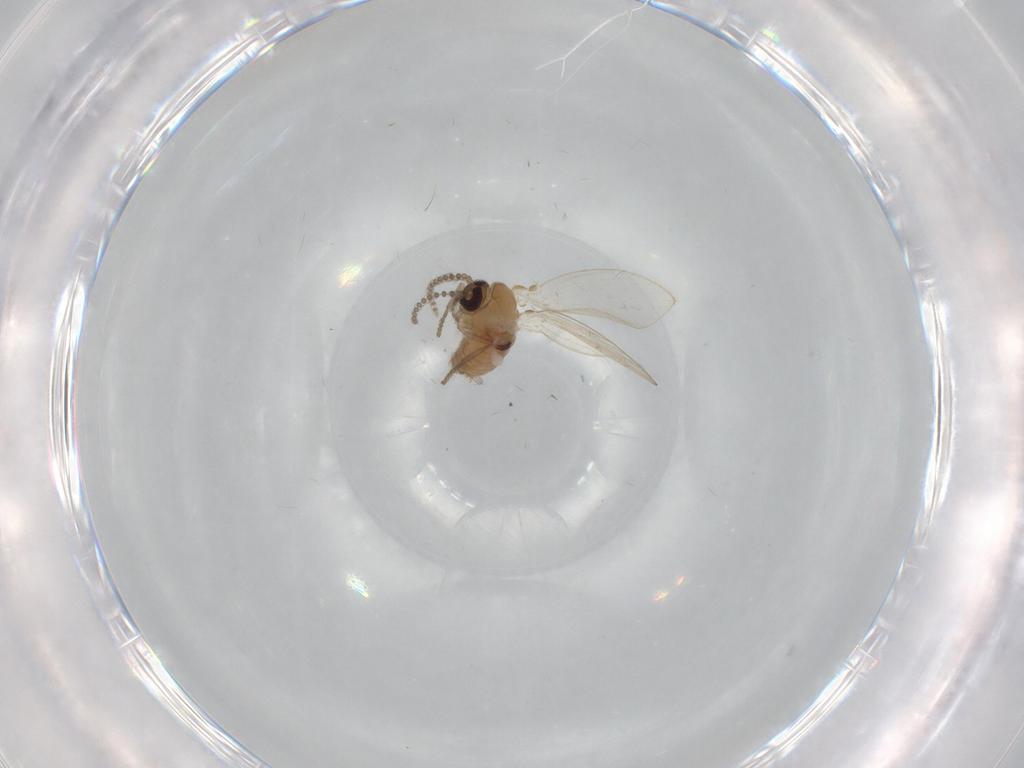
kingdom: Animalia
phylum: Arthropoda
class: Insecta
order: Diptera
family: Psychodidae
